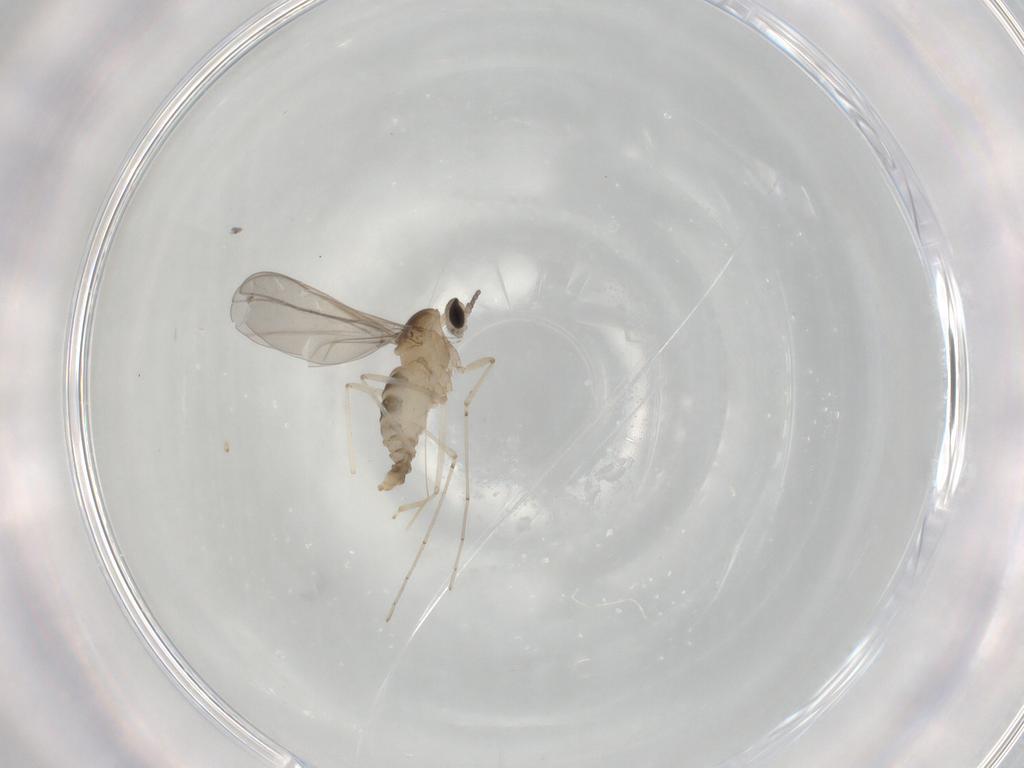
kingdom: Animalia
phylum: Arthropoda
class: Insecta
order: Diptera
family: Cecidomyiidae
